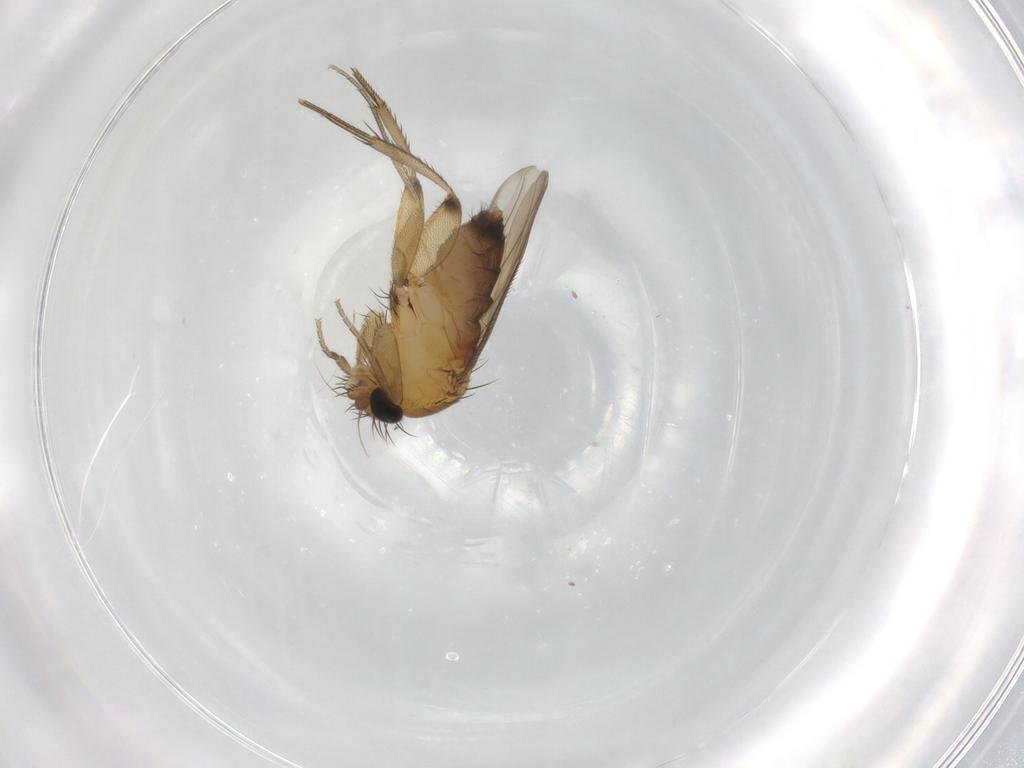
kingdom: Animalia
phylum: Arthropoda
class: Insecta
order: Diptera
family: Phoridae
